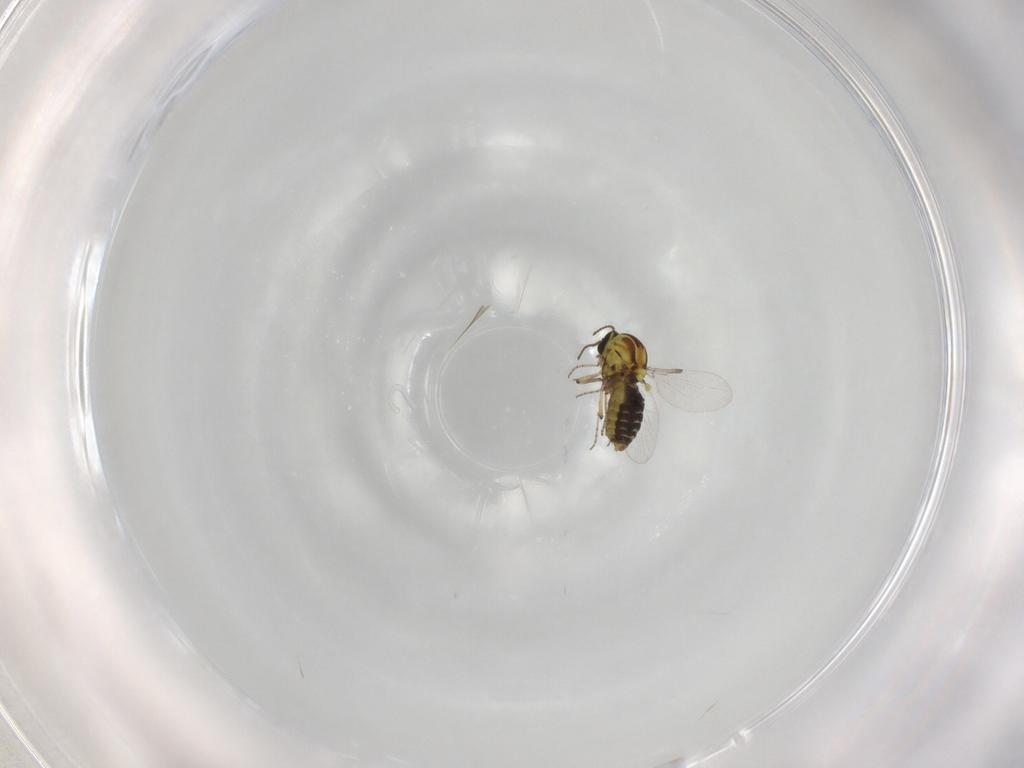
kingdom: Animalia
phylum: Arthropoda
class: Insecta
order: Diptera
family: Ceratopogonidae
